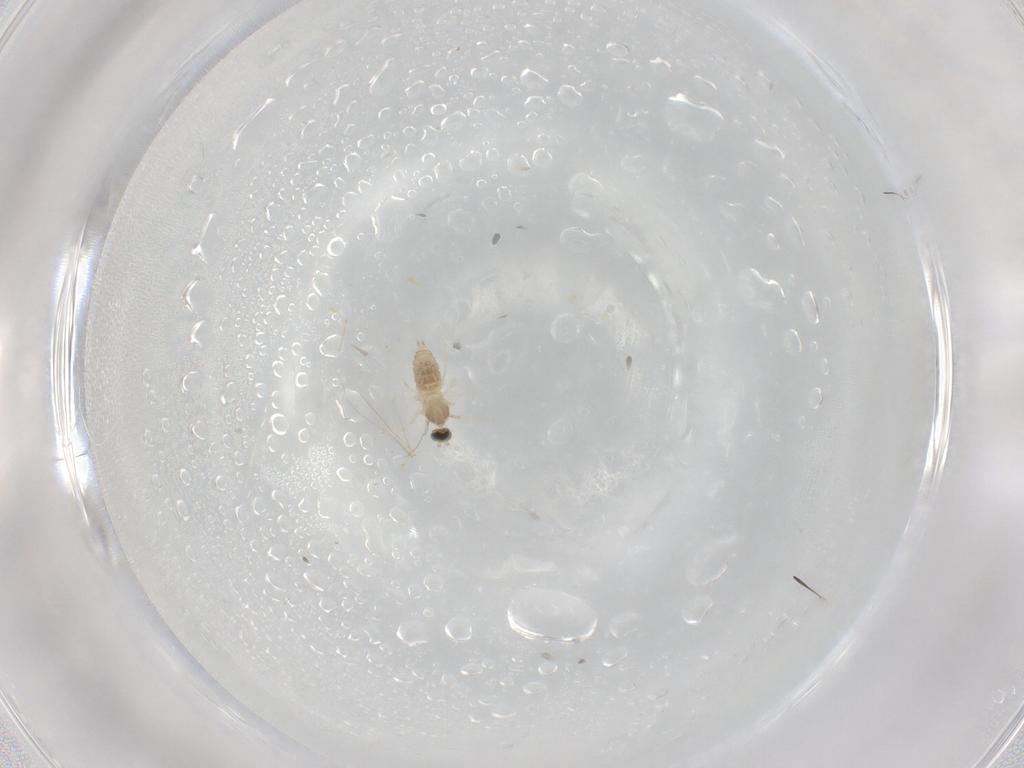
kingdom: Animalia
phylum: Arthropoda
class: Insecta
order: Diptera
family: Cecidomyiidae
